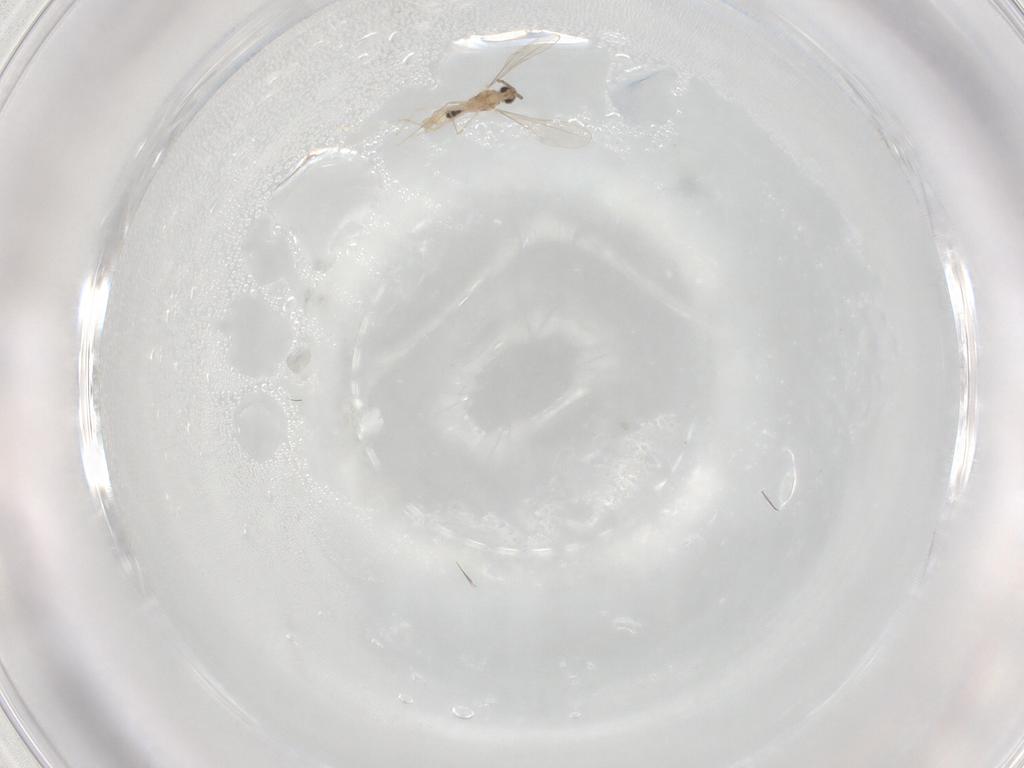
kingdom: Animalia
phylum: Arthropoda
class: Insecta
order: Diptera
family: Cecidomyiidae
